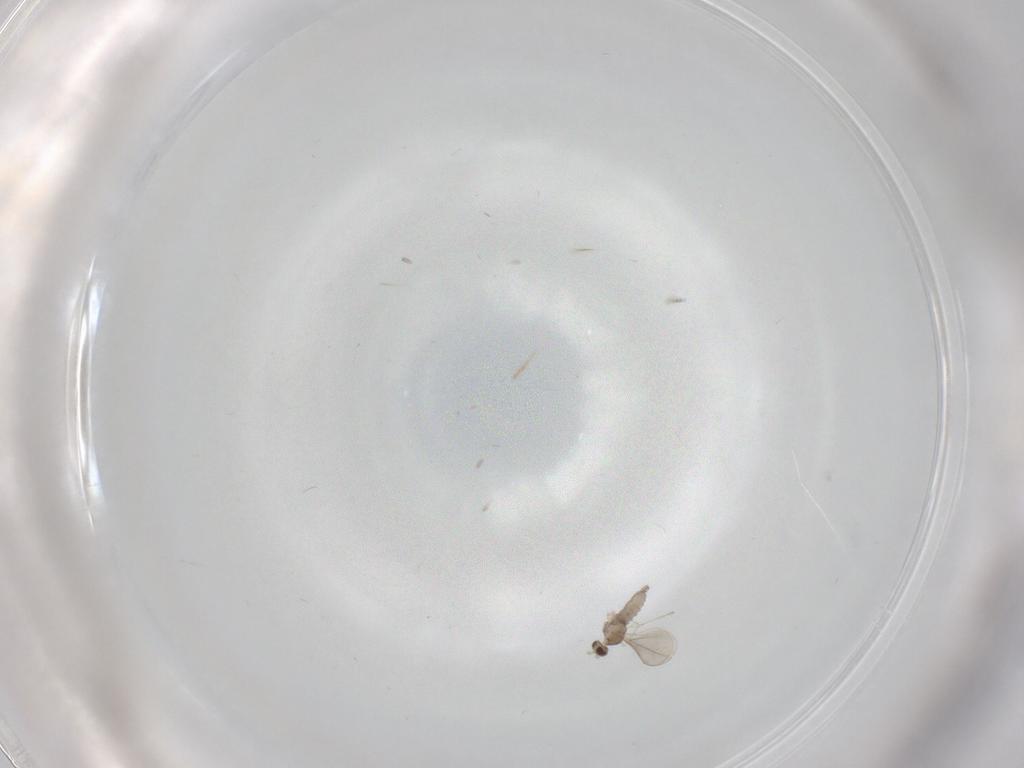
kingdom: Animalia
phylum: Arthropoda
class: Insecta
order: Diptera
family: Cecidomyiidae
